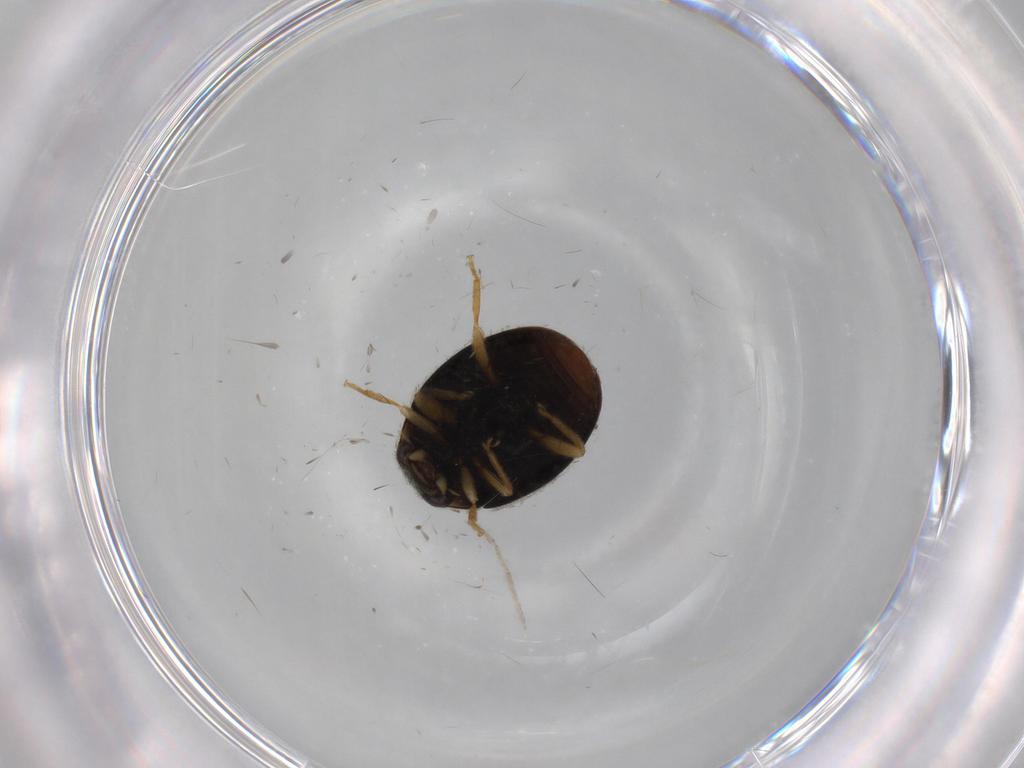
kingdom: Animalia
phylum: Arthropoda
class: Insecta
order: Coleoptera
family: Coccinellidae
